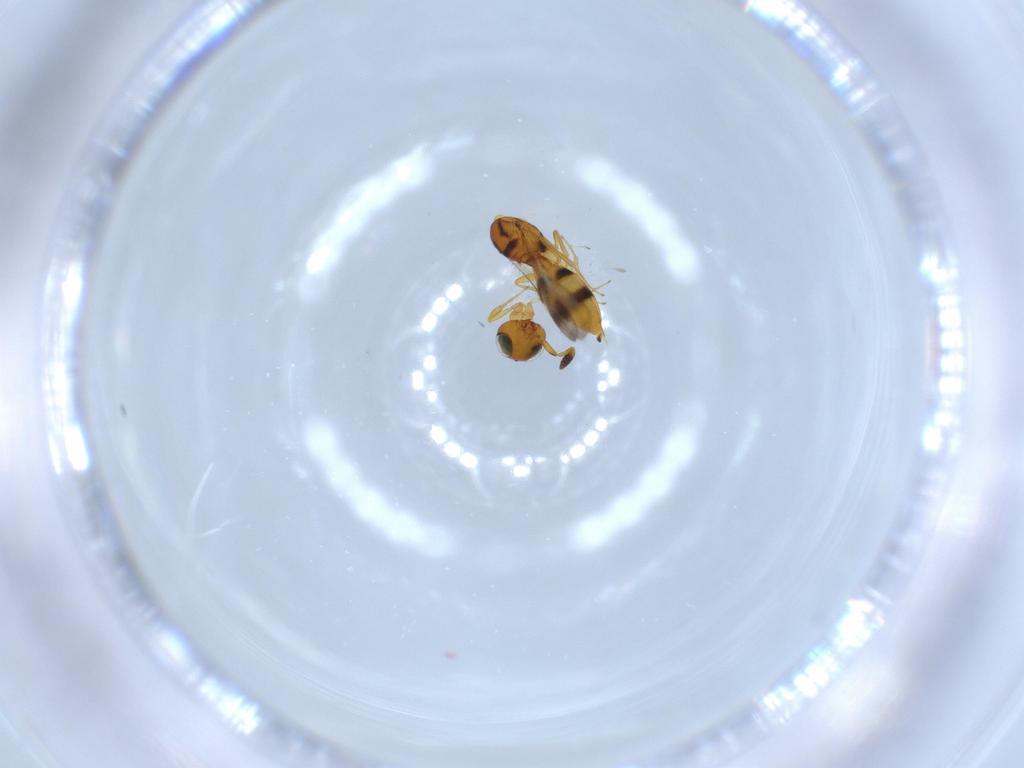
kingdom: Animalia
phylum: Arthropoda
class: Insecta
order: Hymenoptera
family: Scelionidae
